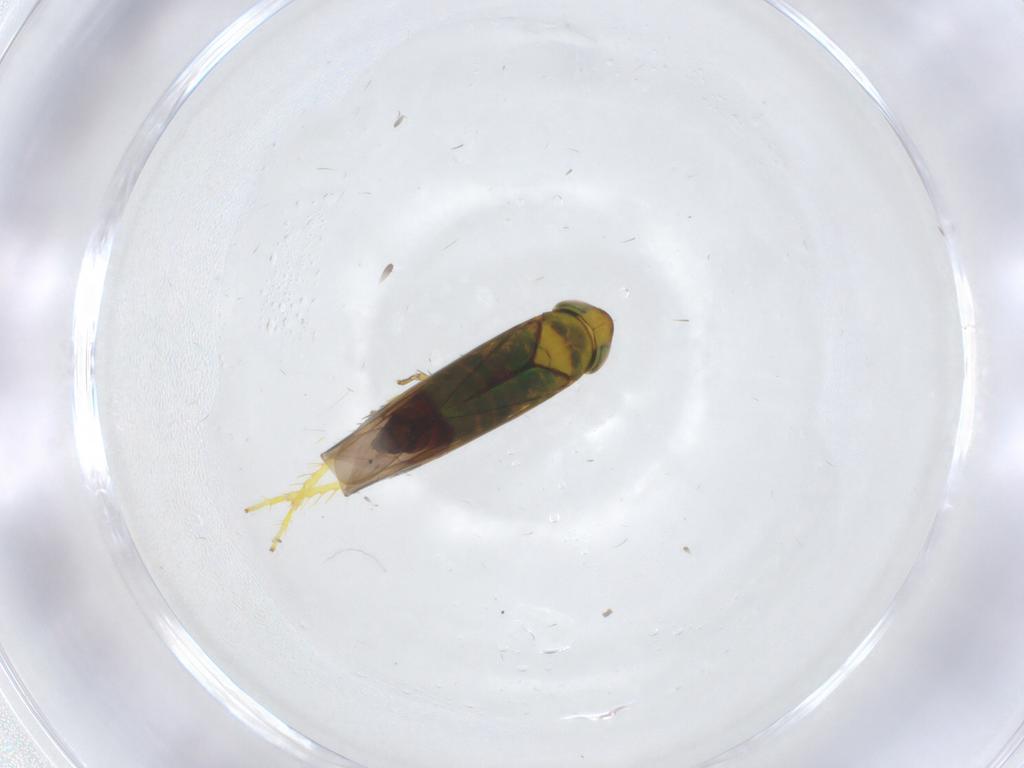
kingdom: Animalia
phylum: Arthropoda
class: Insecta
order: Hemiptera
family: Cicadellidae
